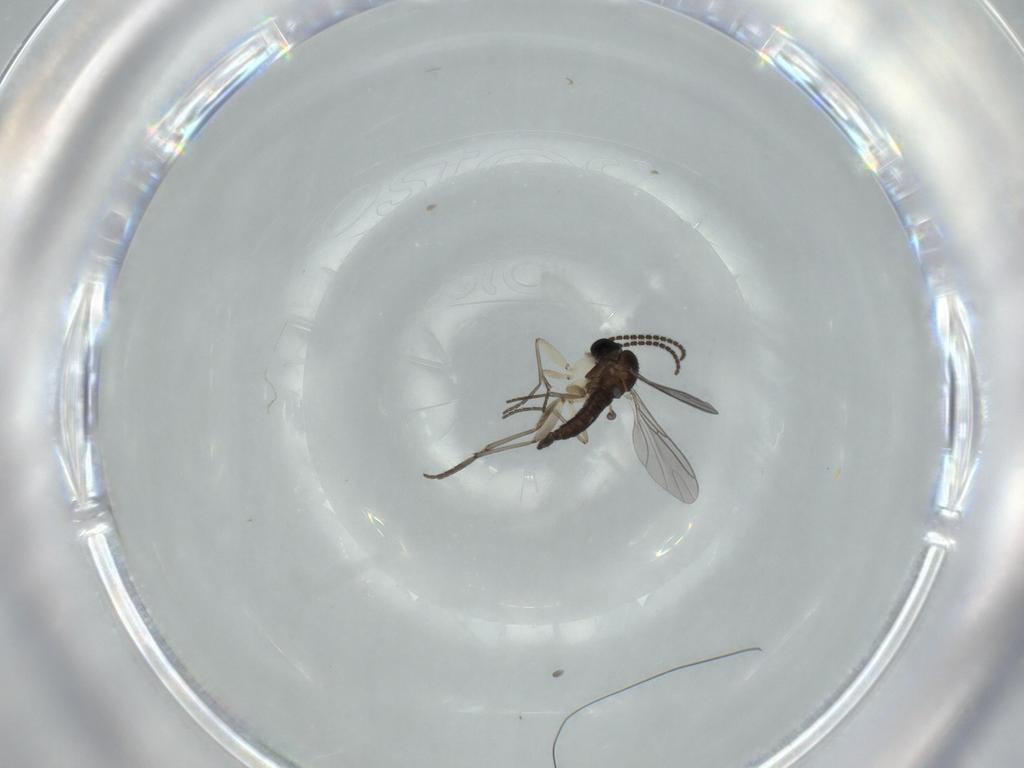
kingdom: Animalia
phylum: Arthropoda
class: Insecta
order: Diptera
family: Sciaridae
